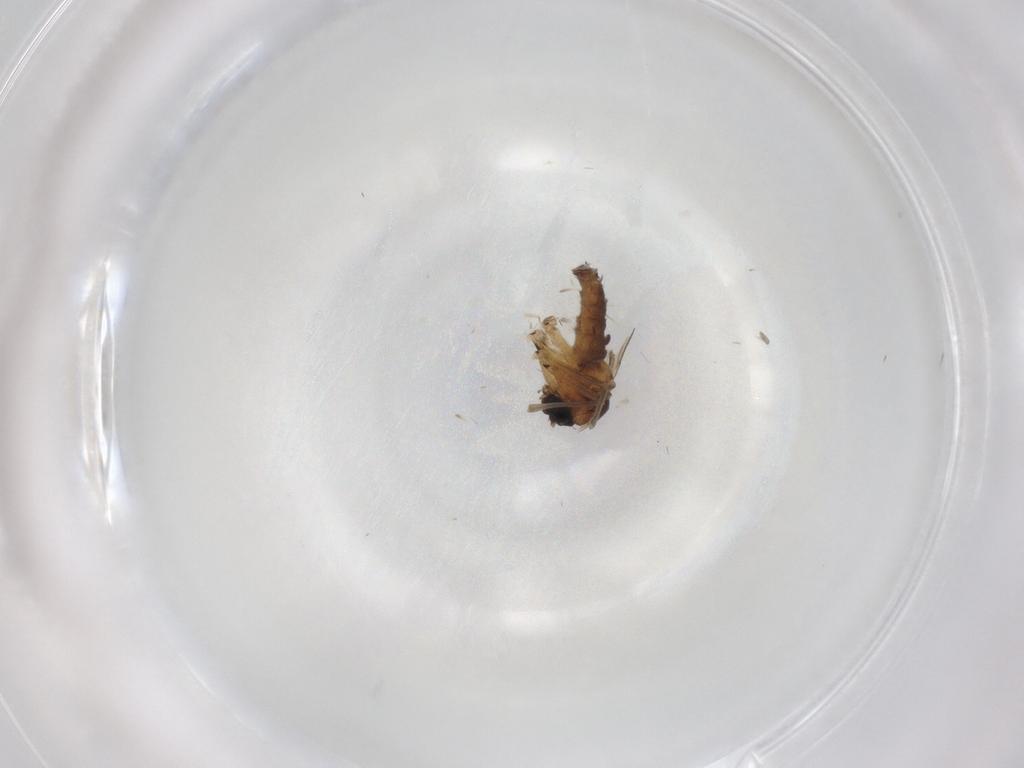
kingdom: Animalia
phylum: Arthropoda
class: Insecta
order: Diptera
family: Sciaridae
